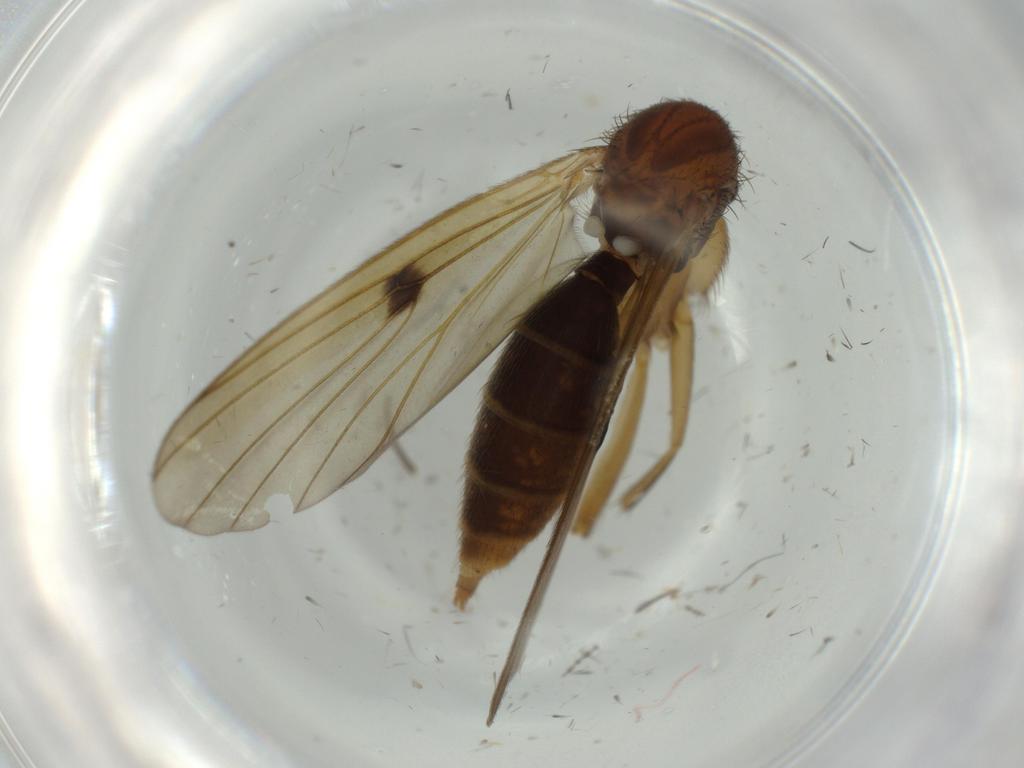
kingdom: Animalia
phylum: Arthropoda
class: Insecta
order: Diptera
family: Cecidomyiidae
